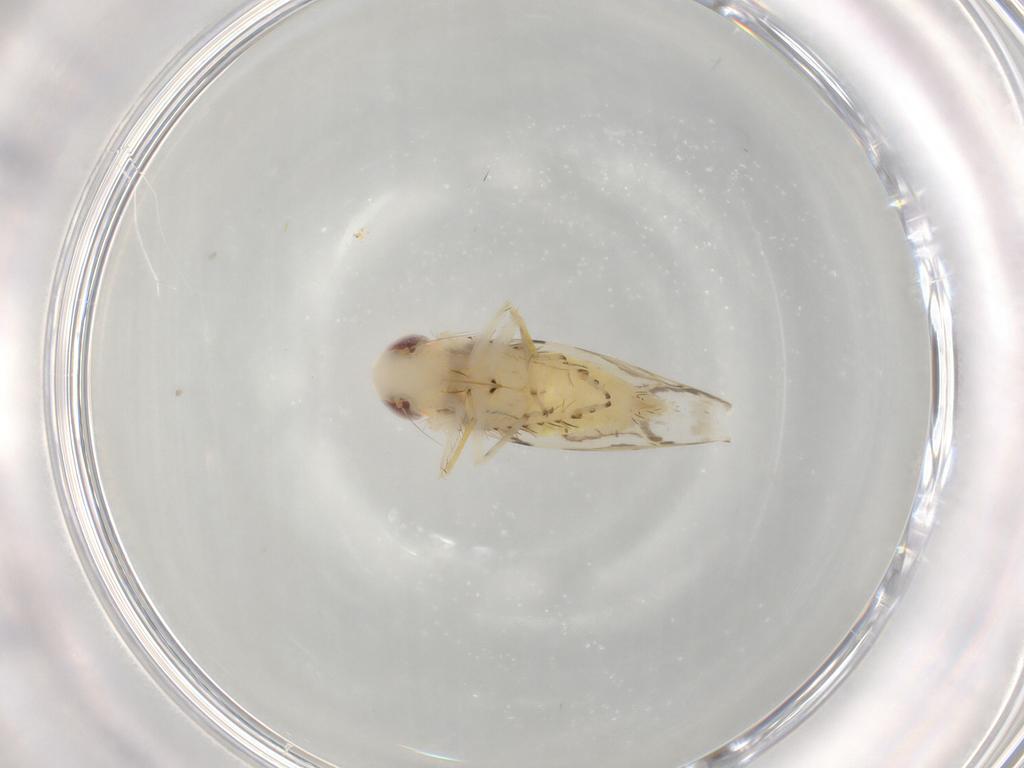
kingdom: Animalia
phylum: Arthropoda
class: Insecta
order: Hemiptera
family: Cicadellidae
